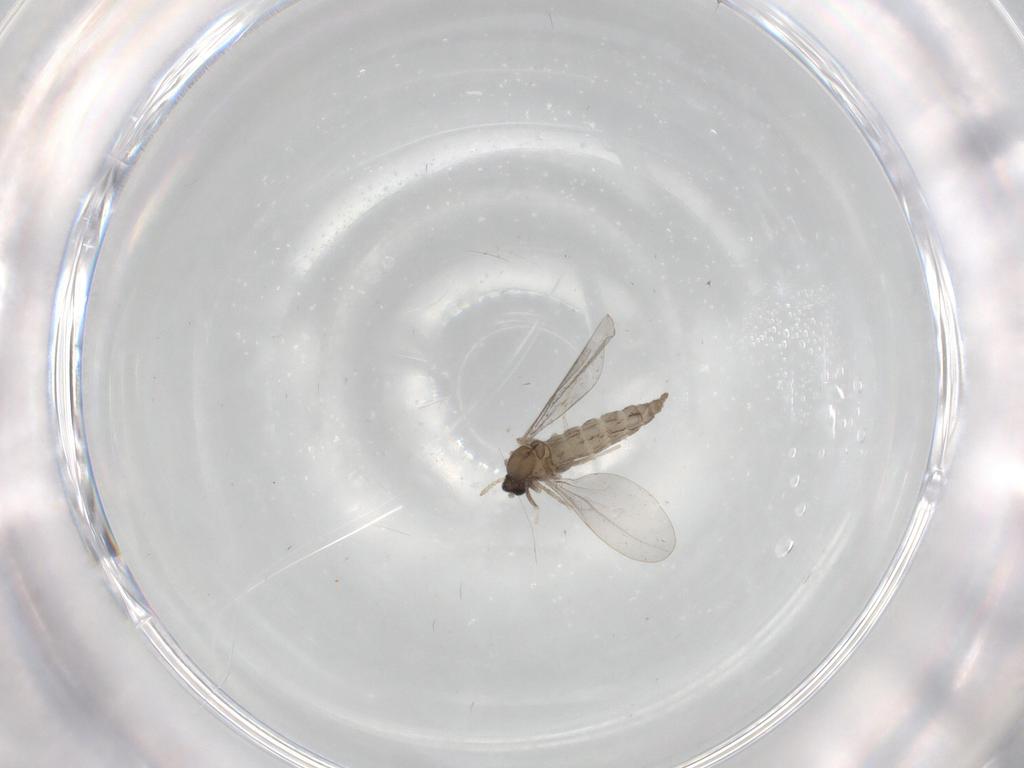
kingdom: Animalia
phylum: Arthropoda
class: Insecta
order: Diptera
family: Cecidomyiidae
